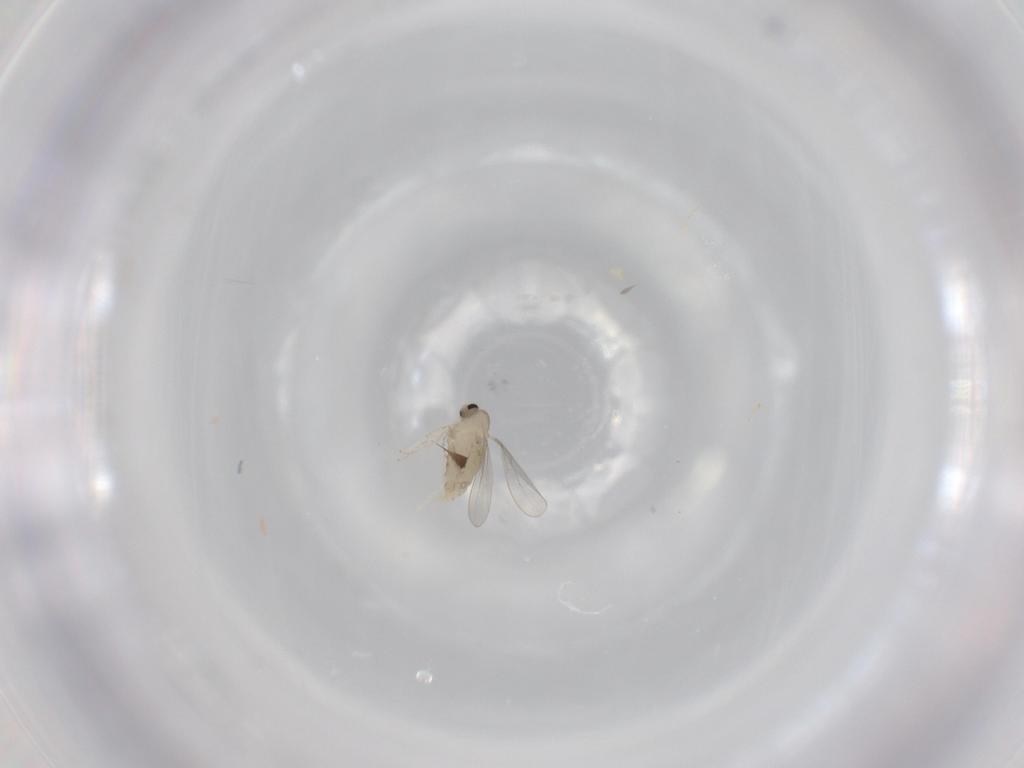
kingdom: Animalia
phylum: Arthropoda
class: Insecta
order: Diptera
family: Cecidomyiidae
